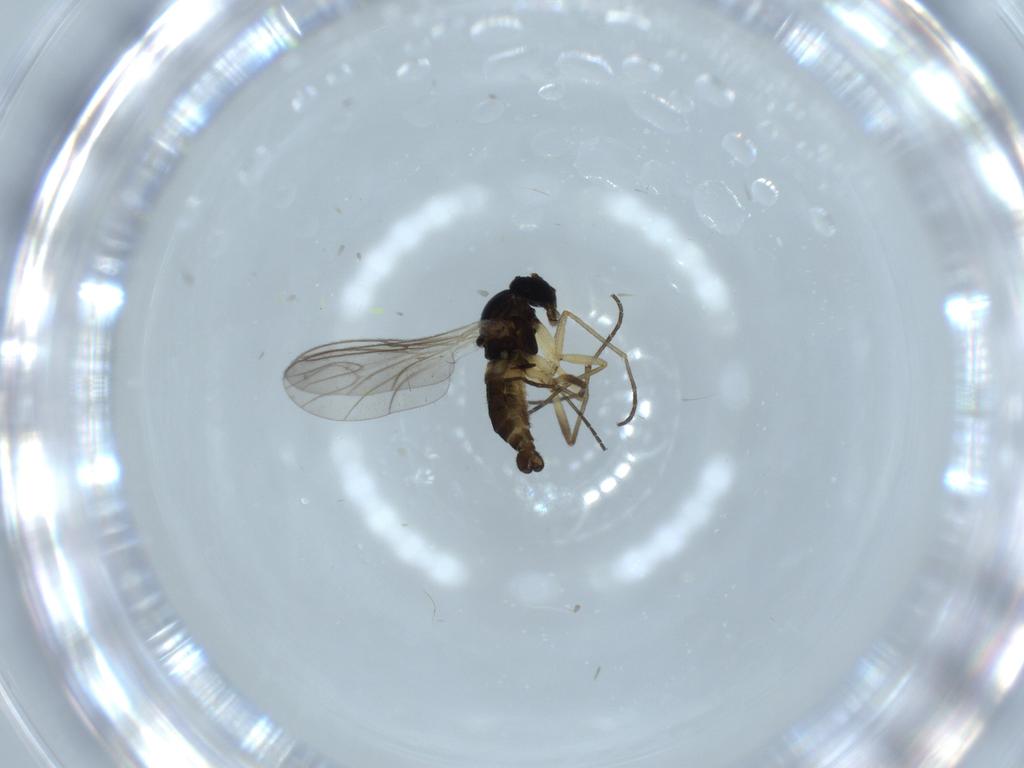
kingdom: Animalia
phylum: Arthropoda
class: Insecta
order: Diptera
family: Sciaridae
